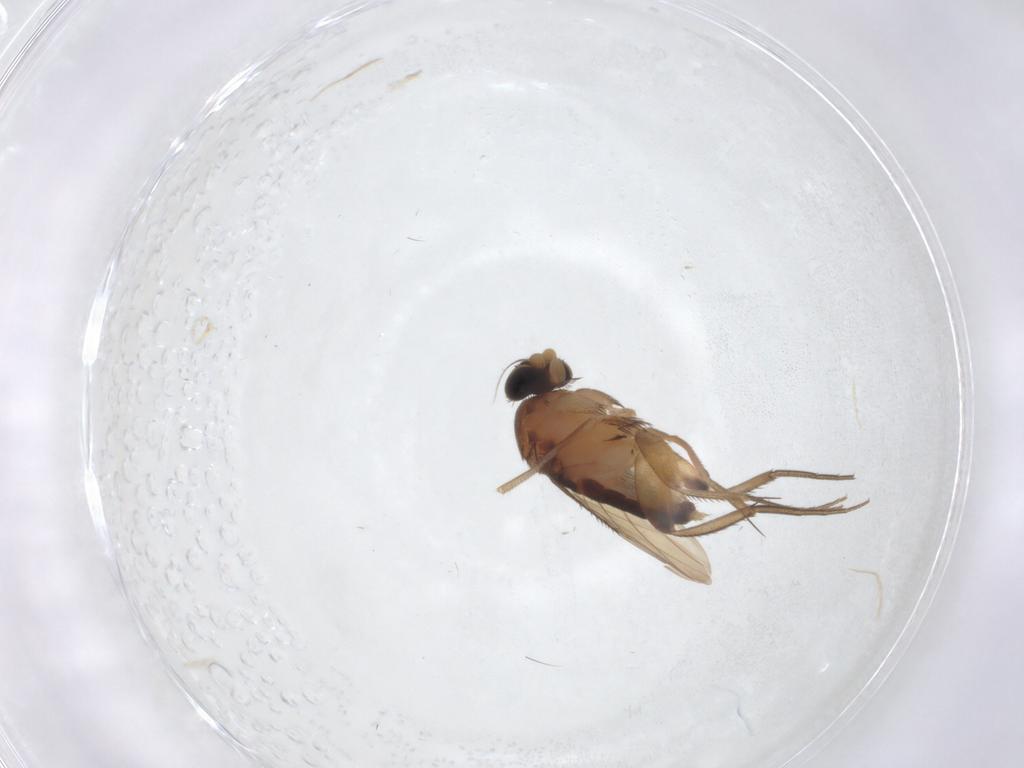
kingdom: Animalia
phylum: Arthropoda
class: Insecta
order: Diptera
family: Phoridae
